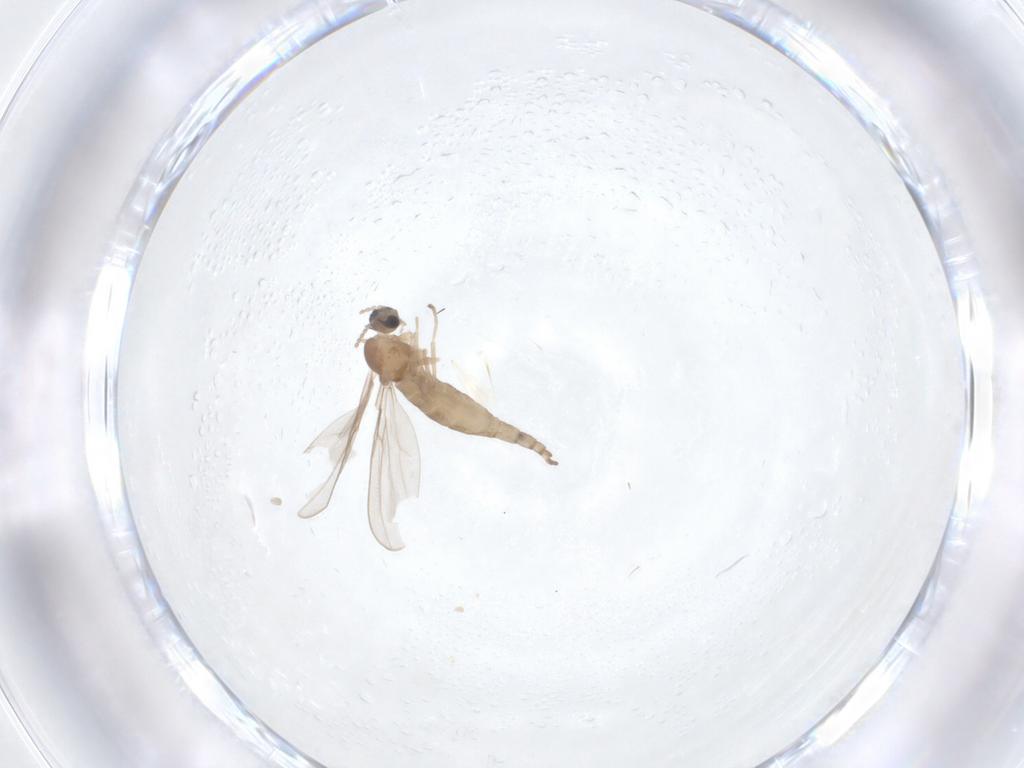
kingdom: Animalia
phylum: Arthropoda
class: Insecta
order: Diptera
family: Cecidomyiidae
